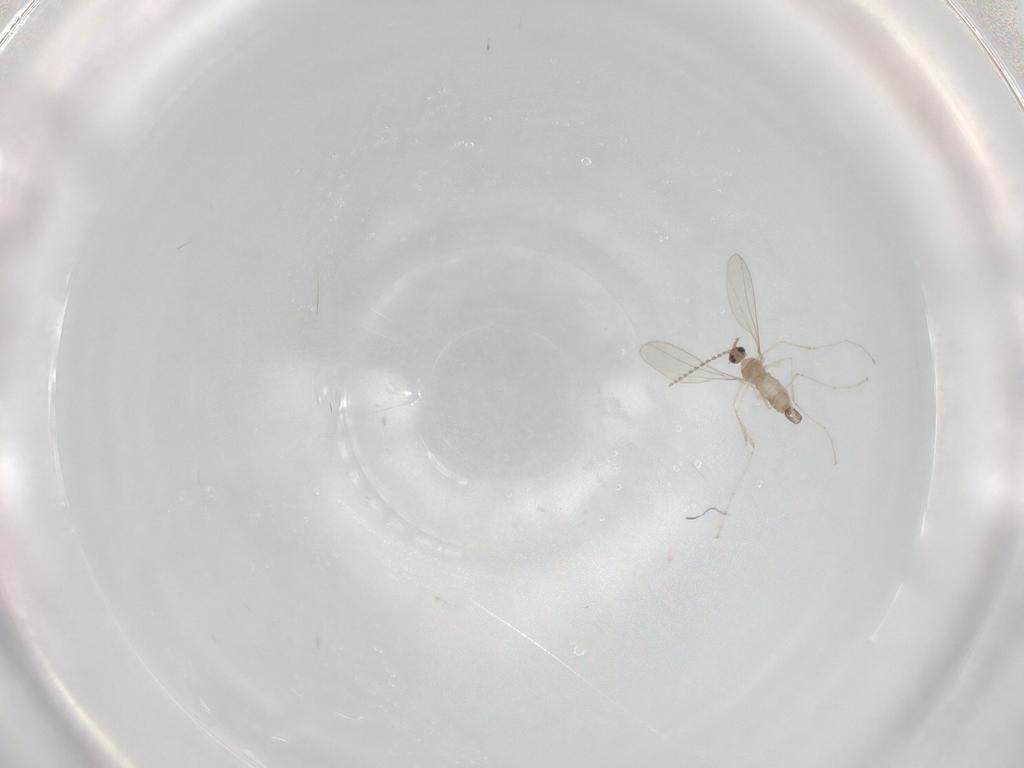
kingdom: Animalia
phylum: Arthropoda
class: Insecta
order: Diptera
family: Cecidomyiidae
